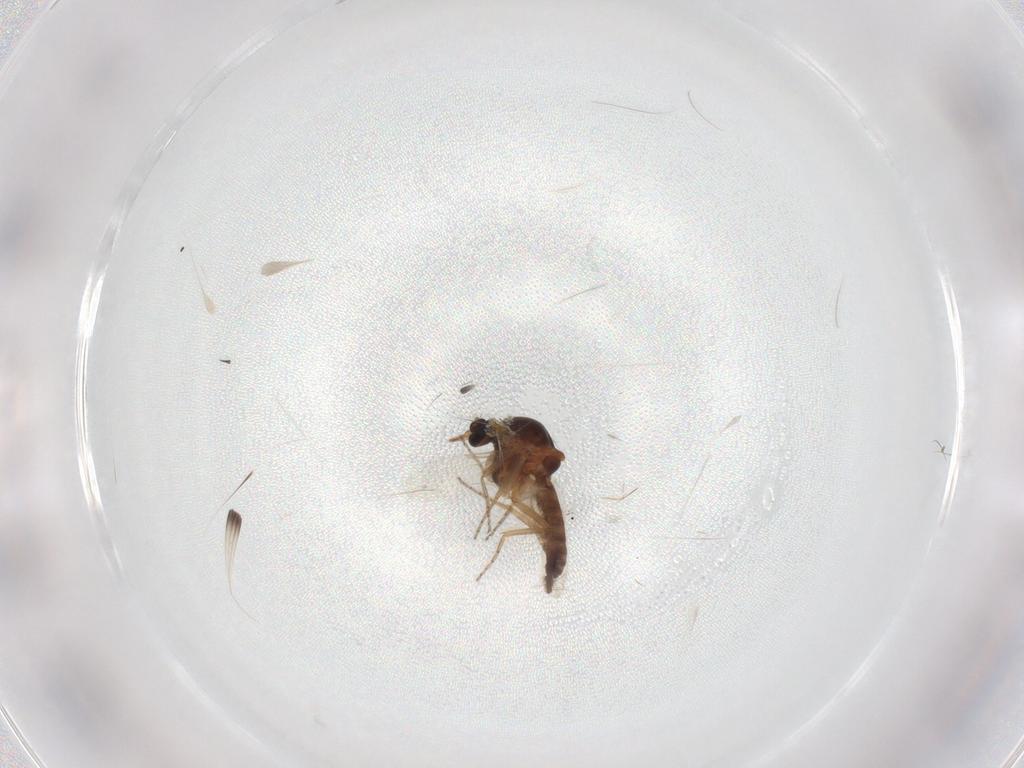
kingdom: Animalia
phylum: Arthropoda
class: Insecta
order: Diptera
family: Ceratopogonidae
